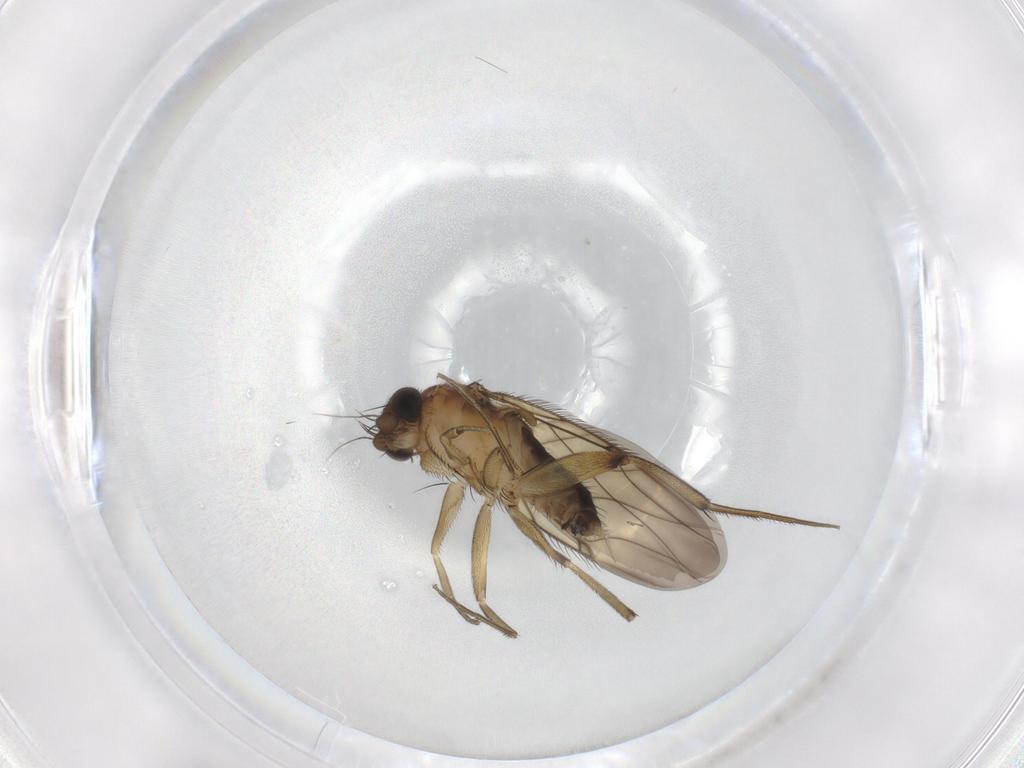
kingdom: Animalia
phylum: Arthropoda
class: Insecta
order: Diptera
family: Phoridae
